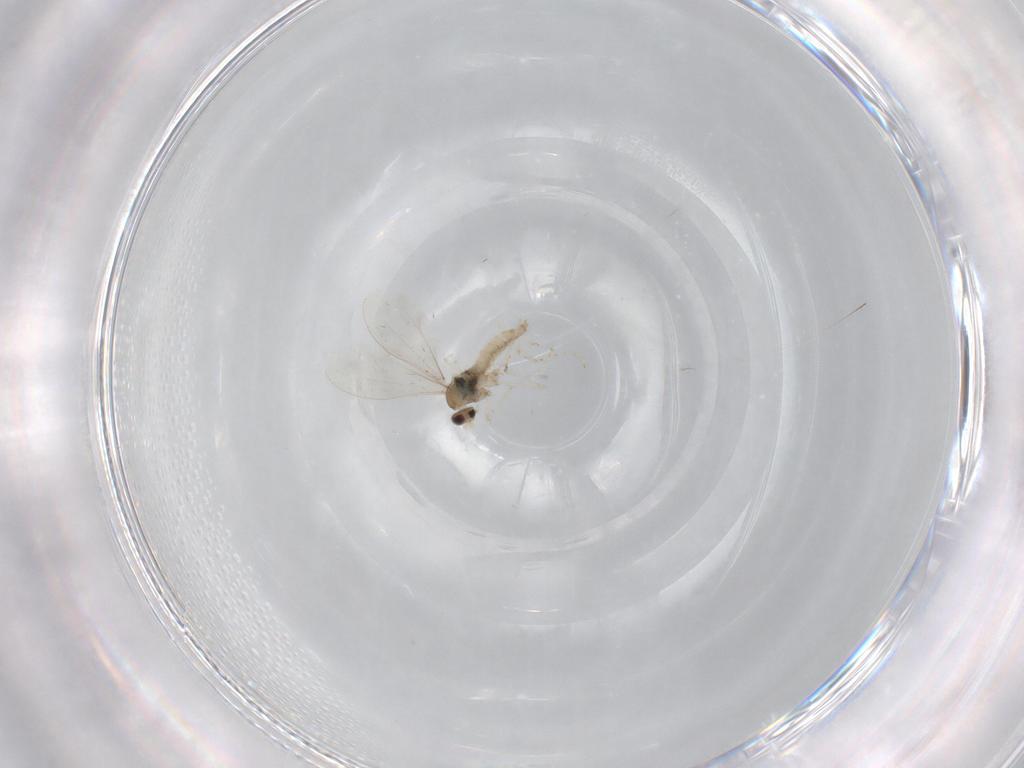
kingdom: Animalia
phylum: Arthropoda
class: Insecta
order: Diptera
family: Cecidomyiidae
